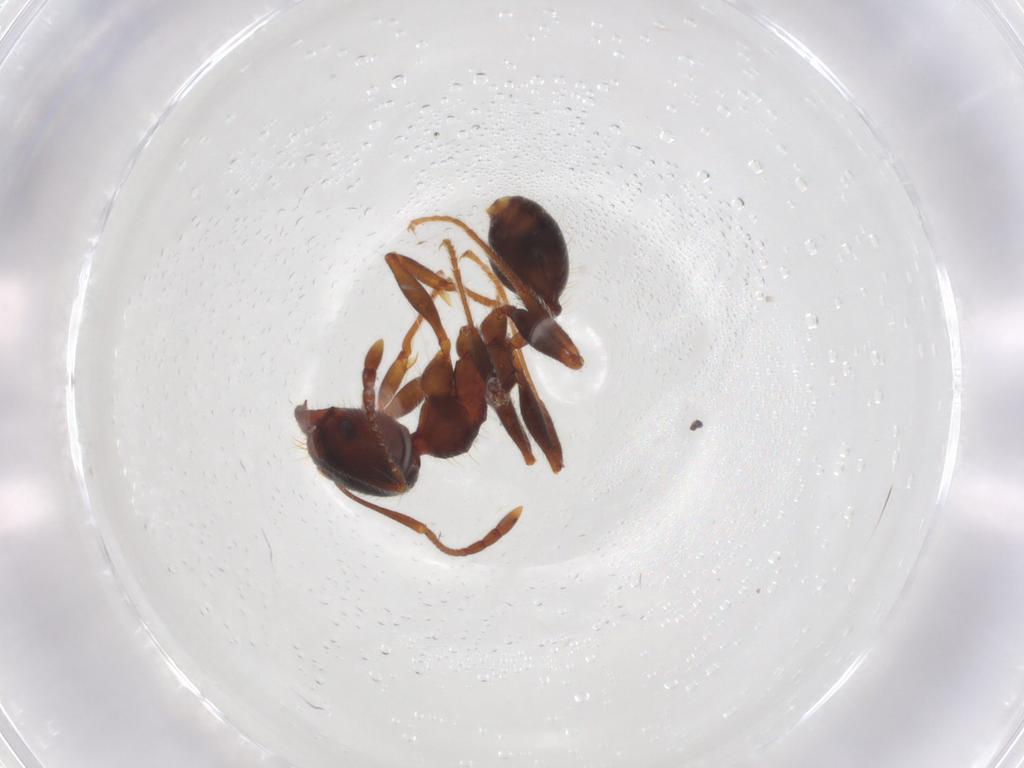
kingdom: Animalia
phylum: Arthropoda
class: Insecta
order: Hymenoptera
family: Formicidae
